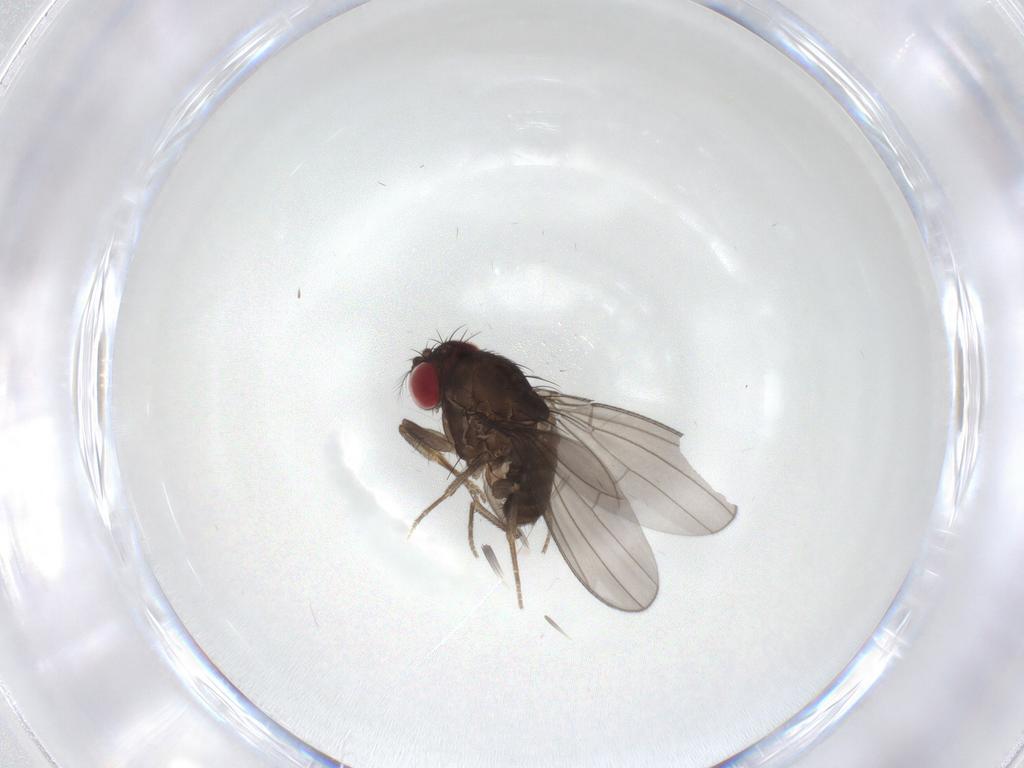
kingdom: Animalia
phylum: Arthropoda
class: Insecta
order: Diptera
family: Drosophilidae
